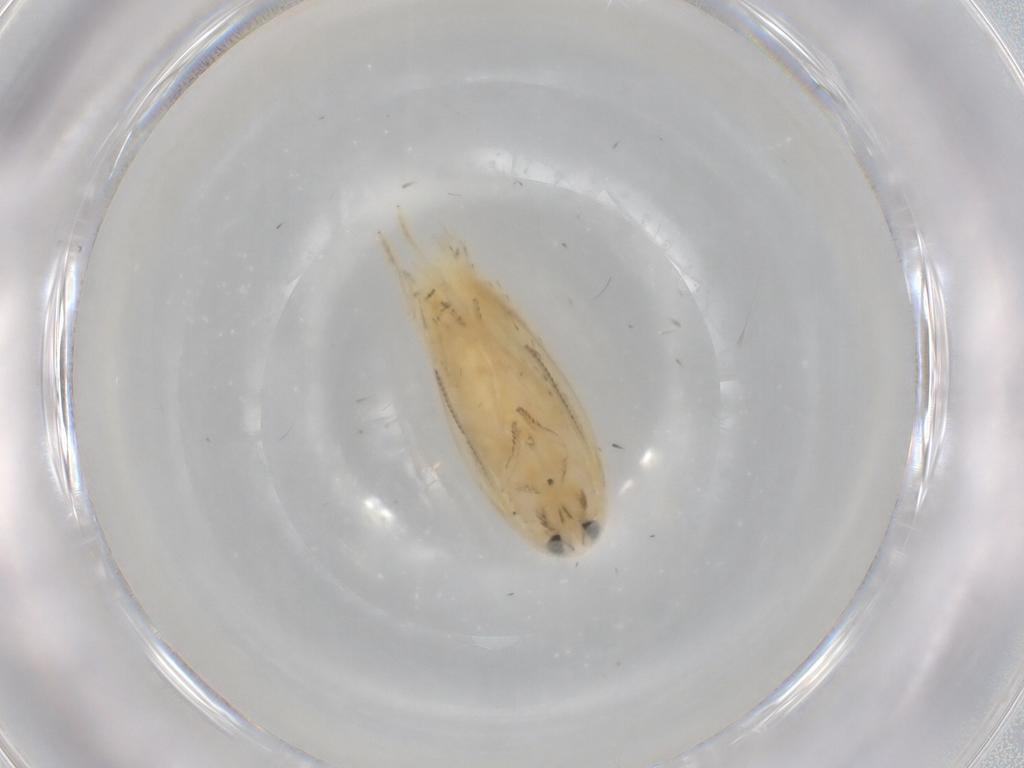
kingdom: Animalia
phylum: Arthropoda
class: Insecta
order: Lepidoptera
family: Opostegidae
